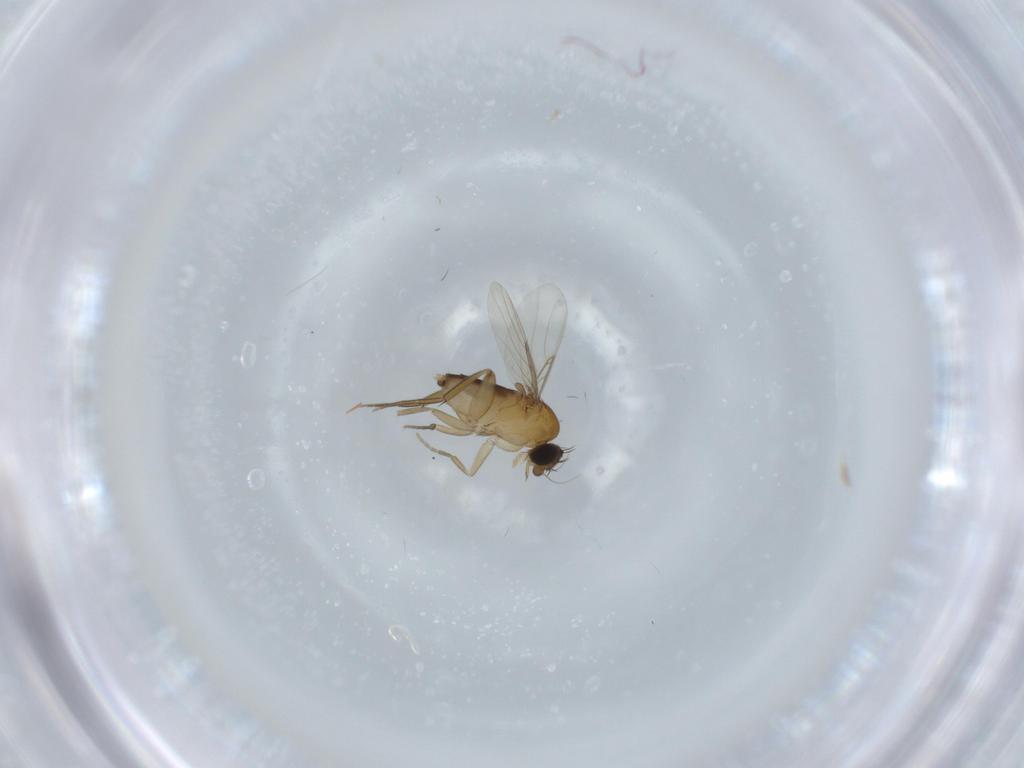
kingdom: Animalia
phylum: Arthropoda
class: Insecta
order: Diptera
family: Phoridae
